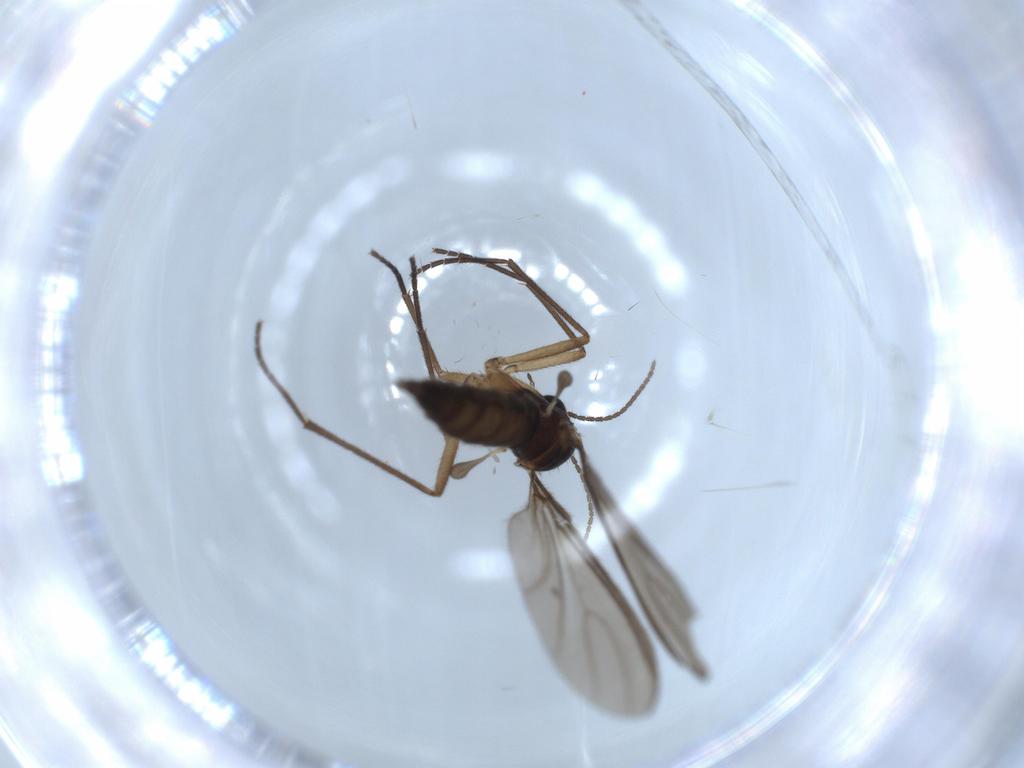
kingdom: Animalia
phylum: Arthropoda
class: Insecta
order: Diptera
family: Sciaridae
